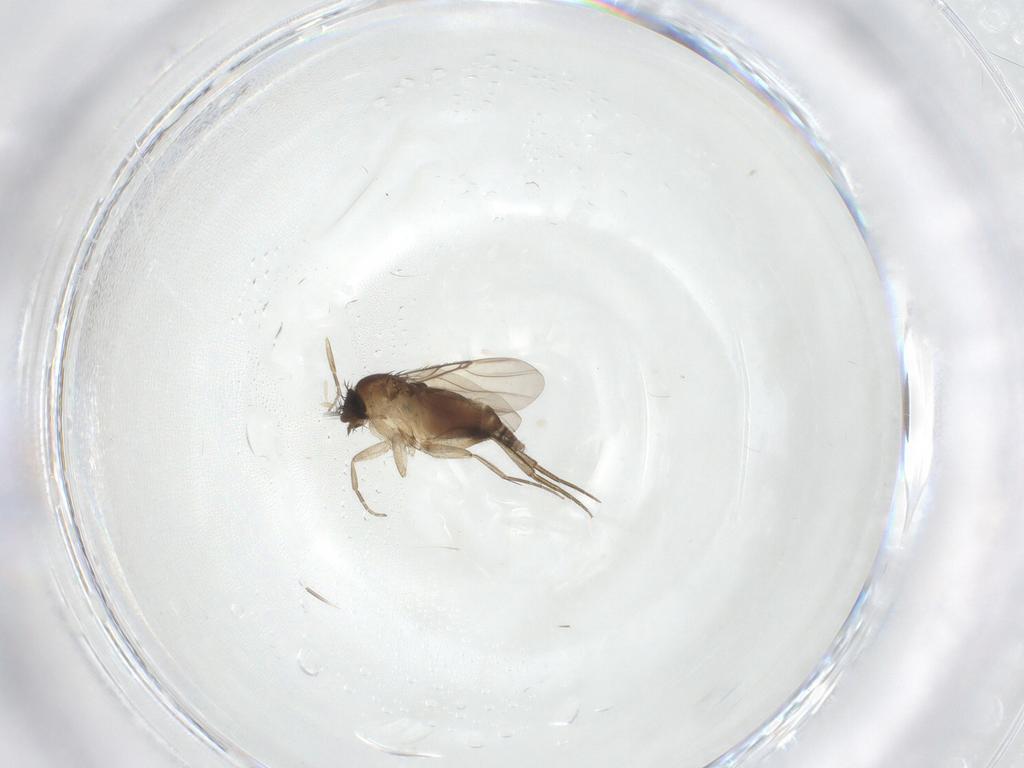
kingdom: Animalia
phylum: Arthropoda
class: Insecta
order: Diptera
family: Phoridae
